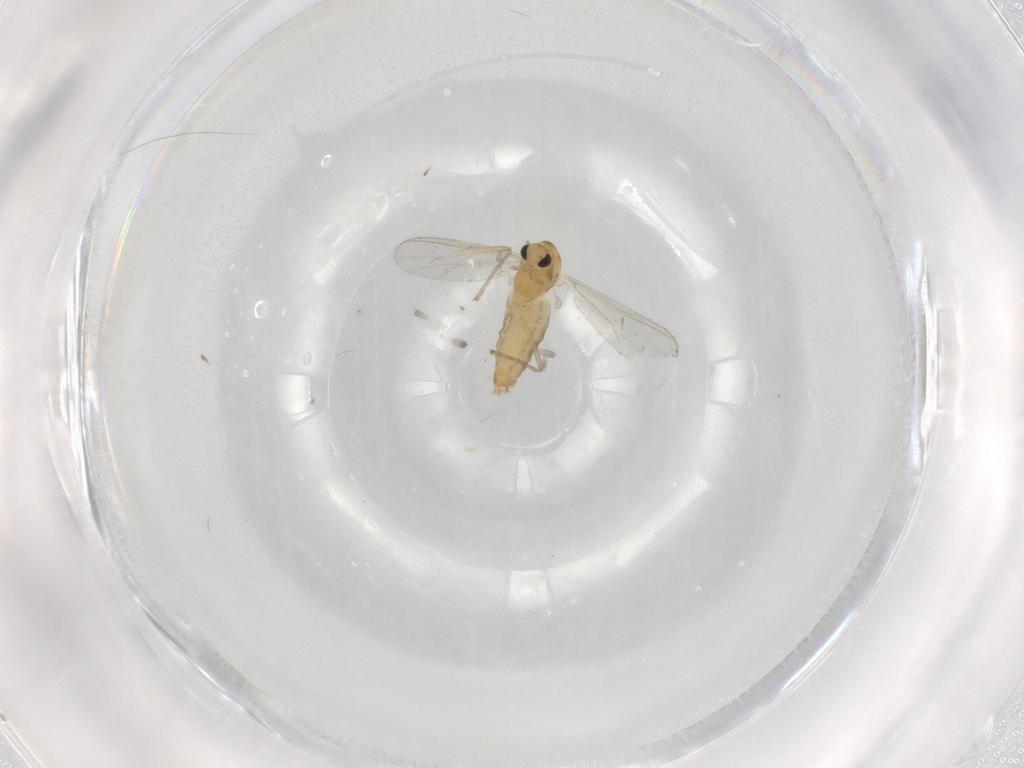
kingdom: Animalia
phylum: Arthropoda
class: Insecta
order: Diptera
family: Chironomidae
